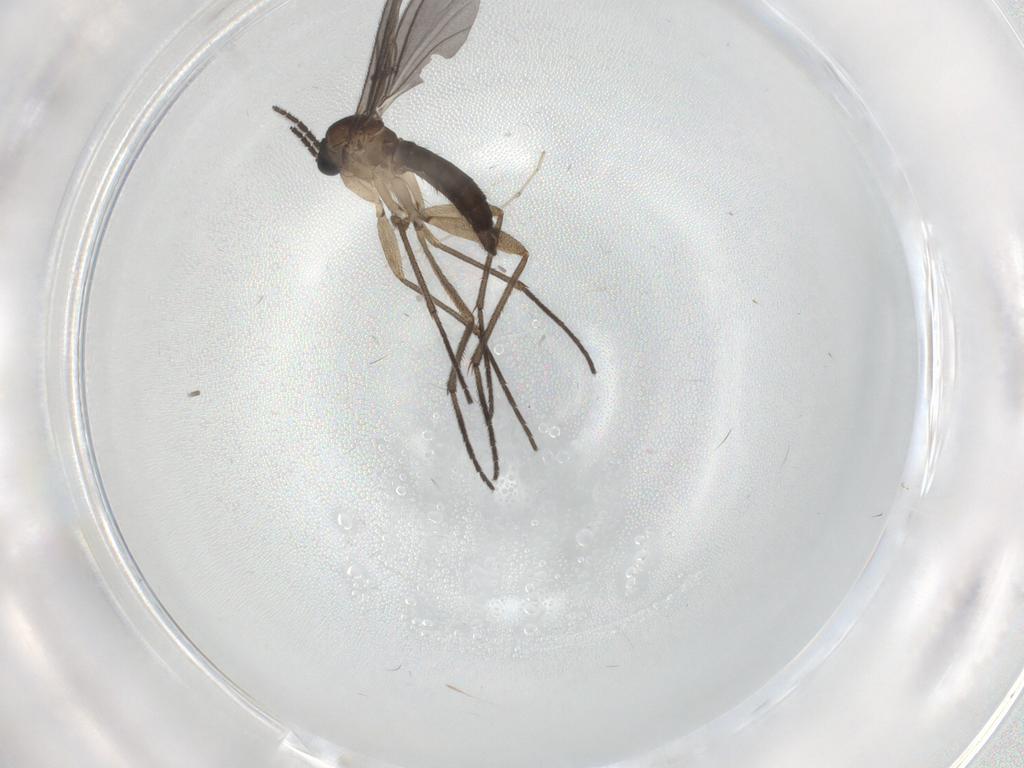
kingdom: Animalia
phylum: Arthropoda
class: Insecta
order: Diptera
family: Cecidomyiidae
